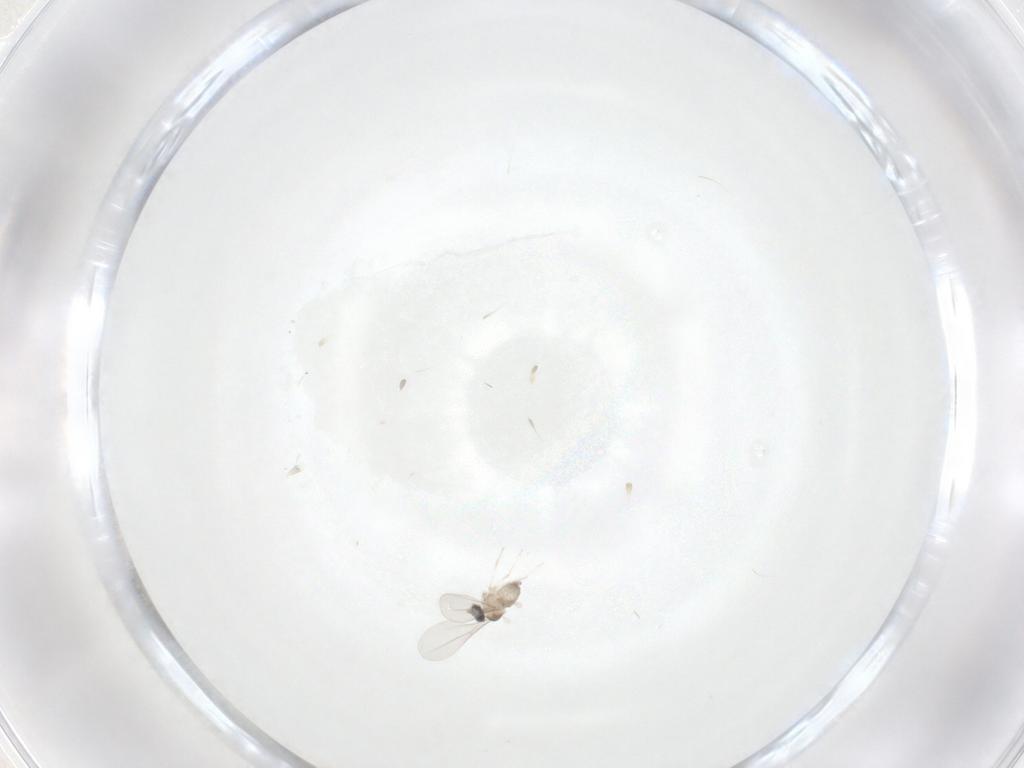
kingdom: Animalia
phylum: Arthropoda
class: Insecta
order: Diptera
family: Cecidomyiidae
